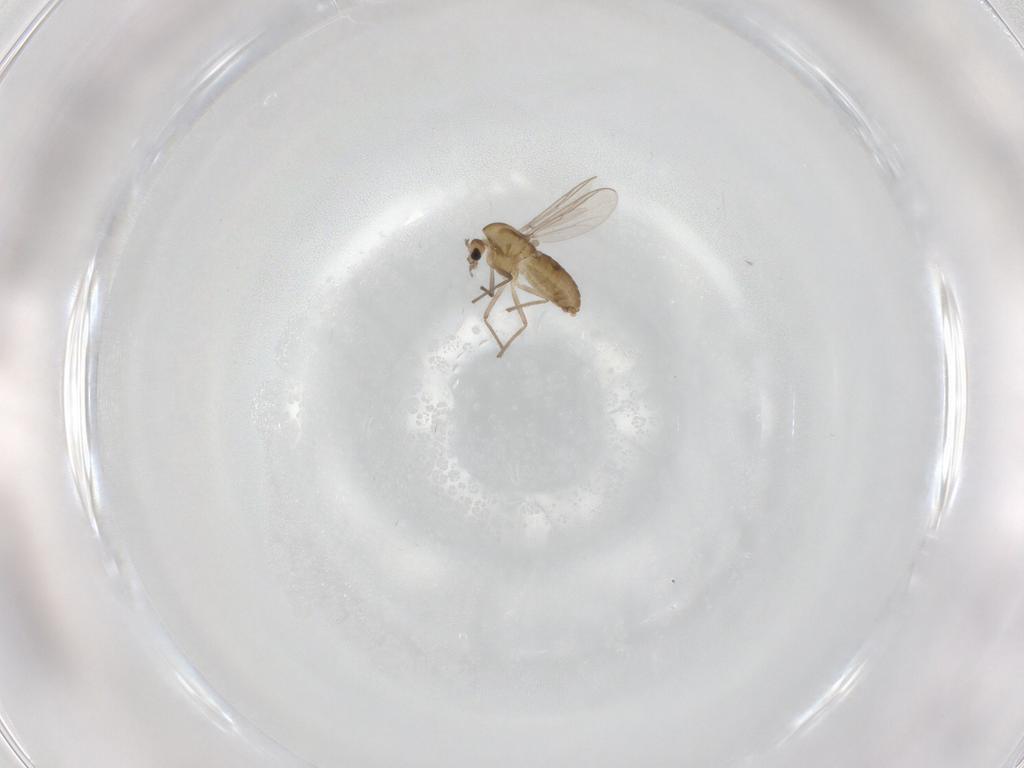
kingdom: Animalia
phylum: Arthropoda
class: Insecta
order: Diptera
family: Chironomidae
